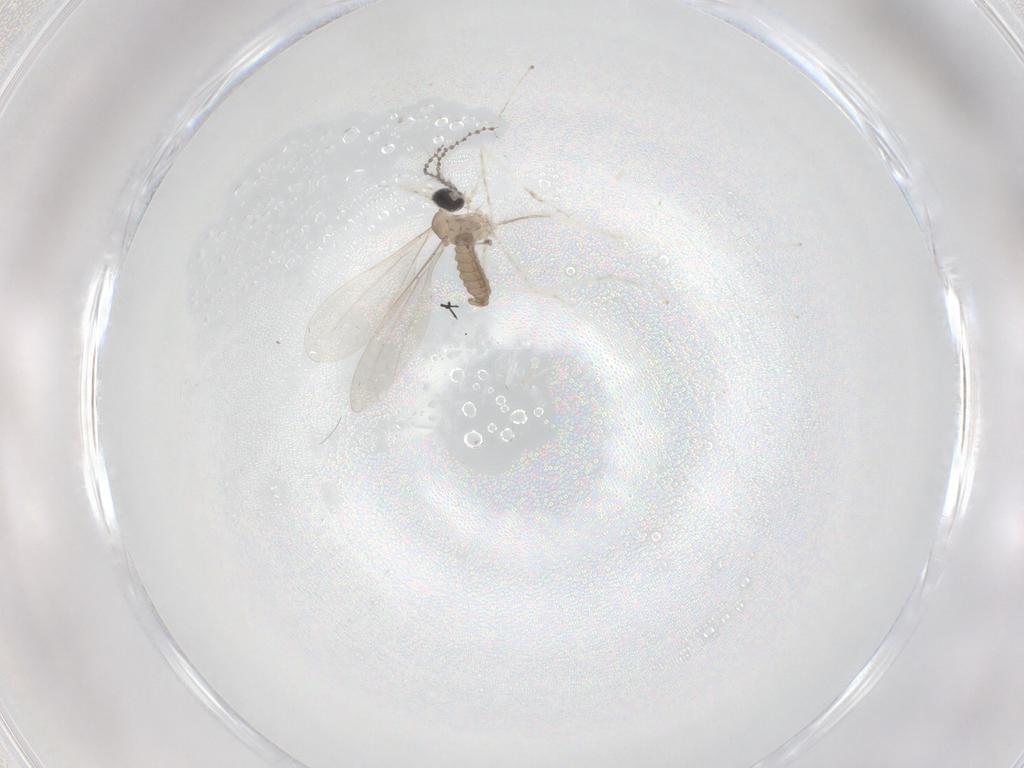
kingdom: Animalia
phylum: Arthropoda
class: Insecta
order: Diptera
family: Cecidomyiidae
